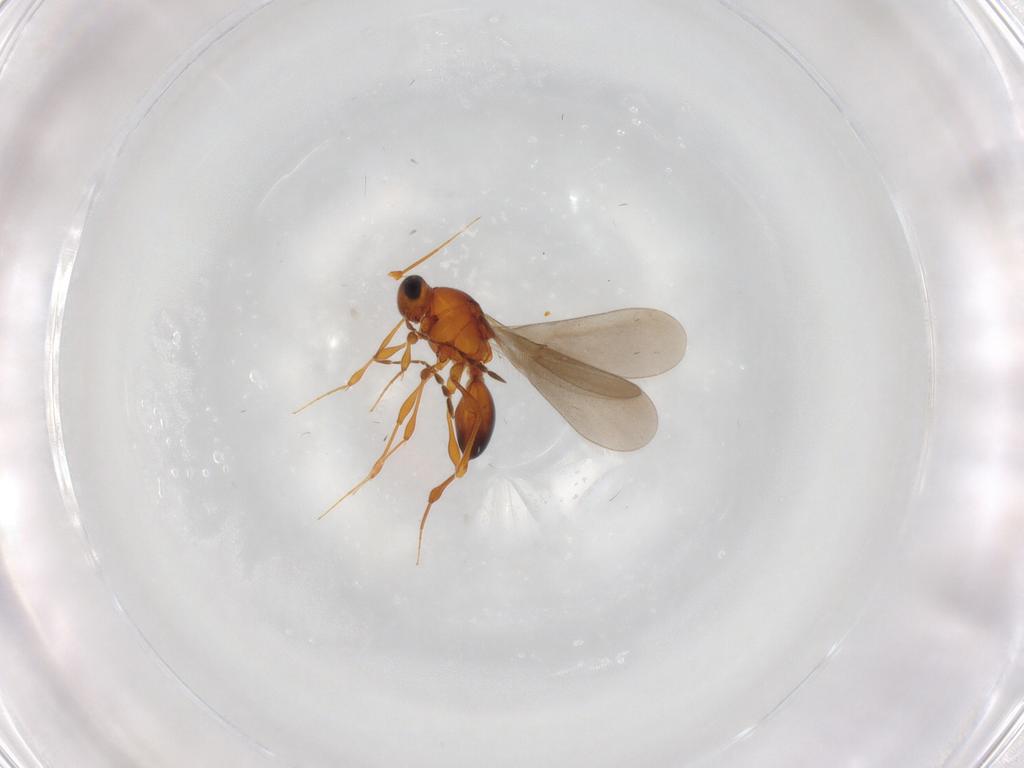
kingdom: Animalia
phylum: Arthropoda
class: Insecta
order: Hymenoptera
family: Platygastridae
